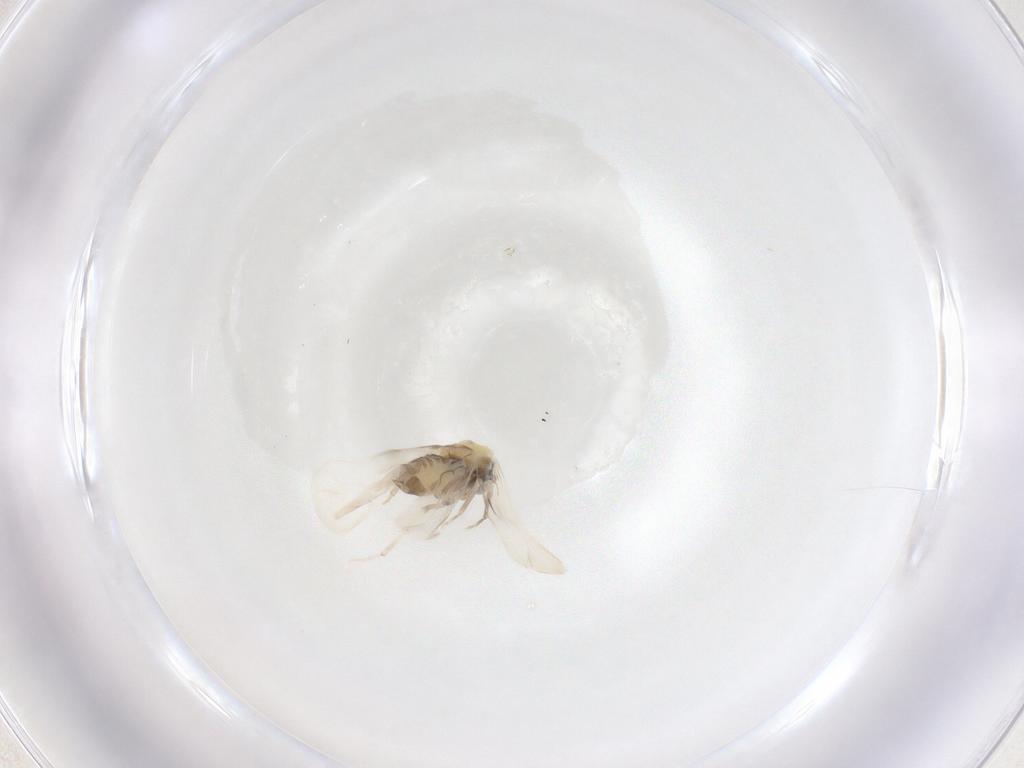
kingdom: Animalia
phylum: Arthropoda
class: Insecta
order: Hemiptera
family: Aleyrodidae
